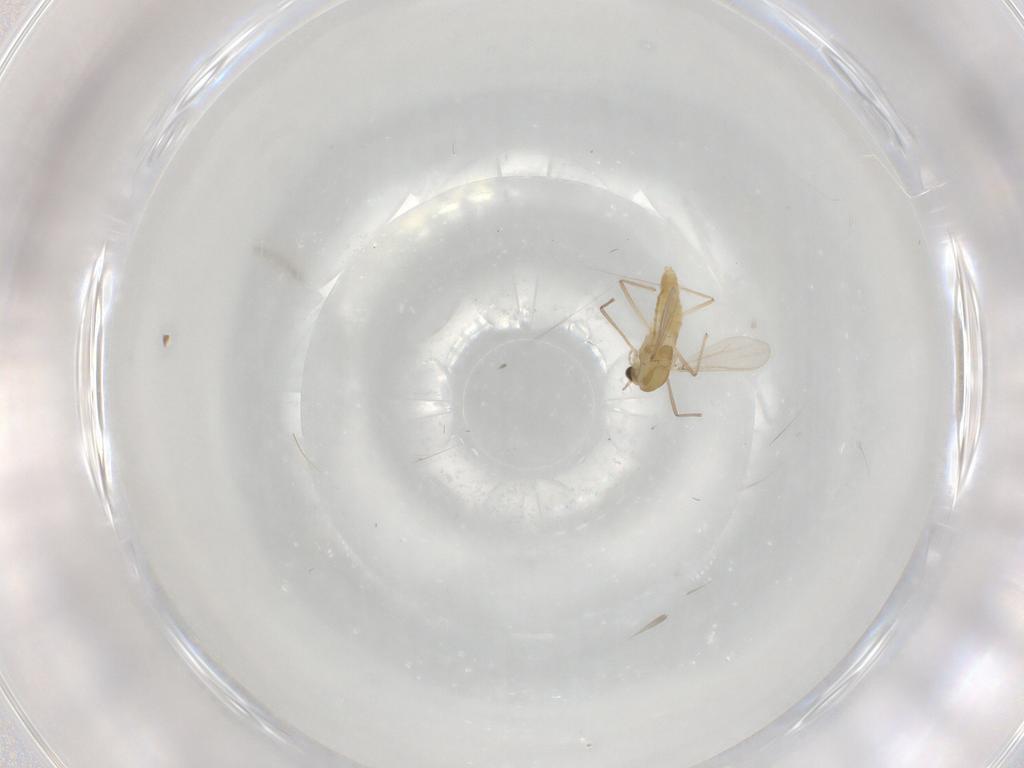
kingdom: Animalia
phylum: Arthropoda
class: Insecta
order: Diptera
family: Chironomidae
